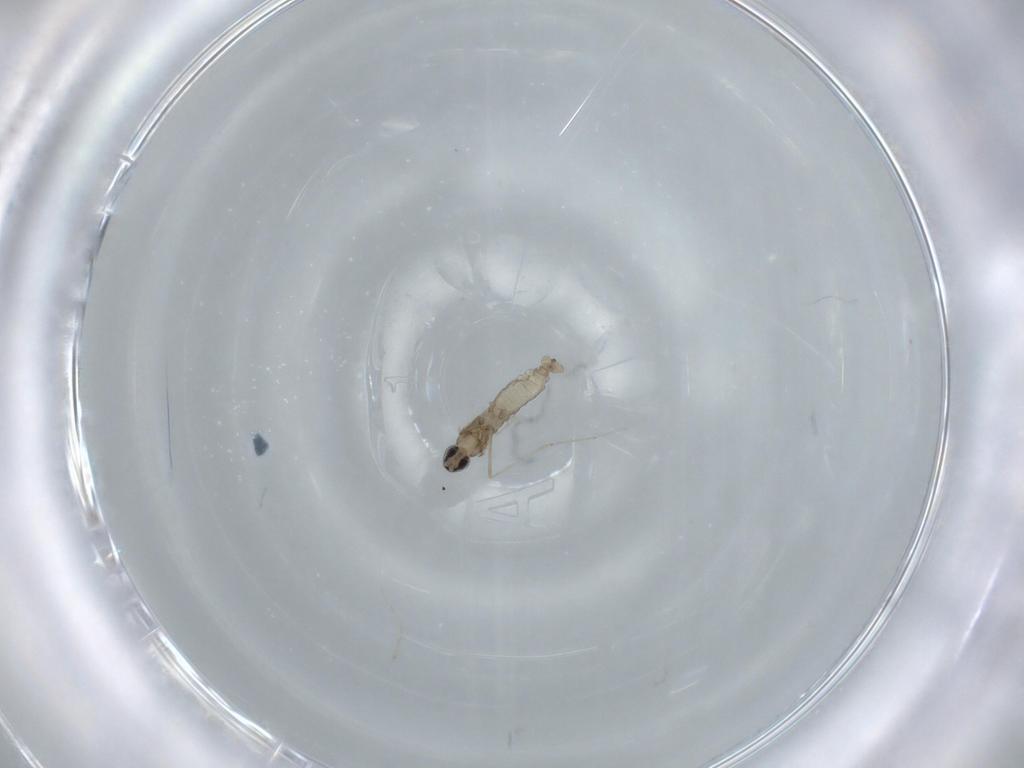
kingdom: Animalia
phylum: Arthropoda
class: Insecta
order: Diptera
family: Cecidomyiidae
